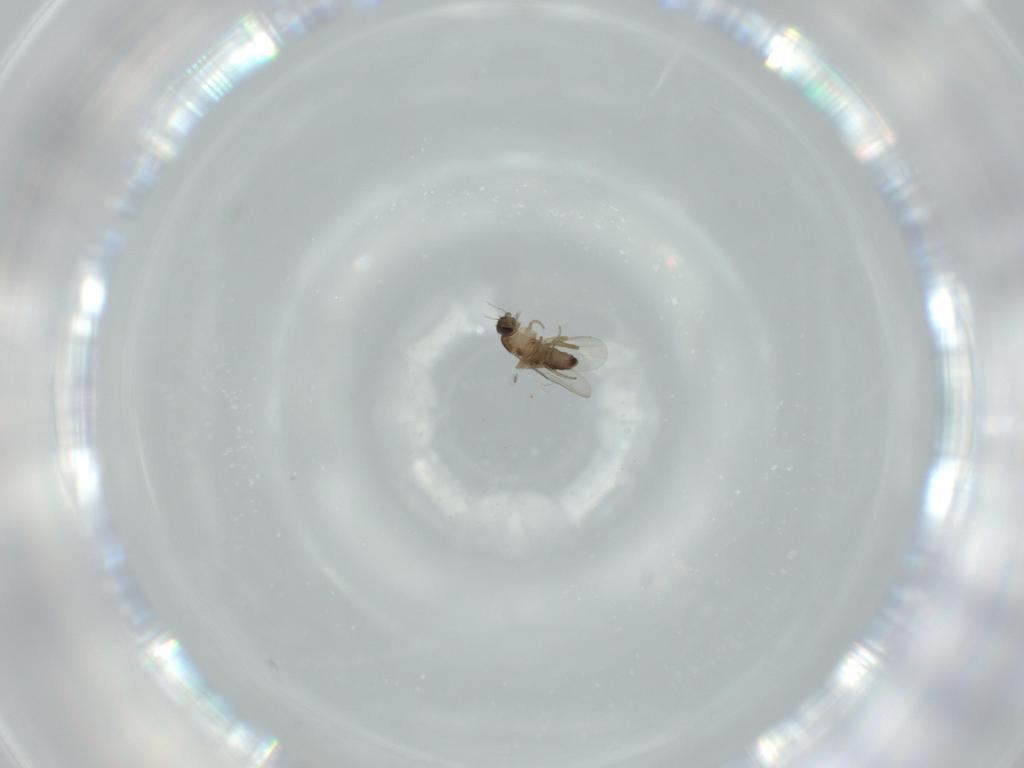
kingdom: Animalia
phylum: Arthropoda
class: Insecta
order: Diptera
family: Sciaridae
